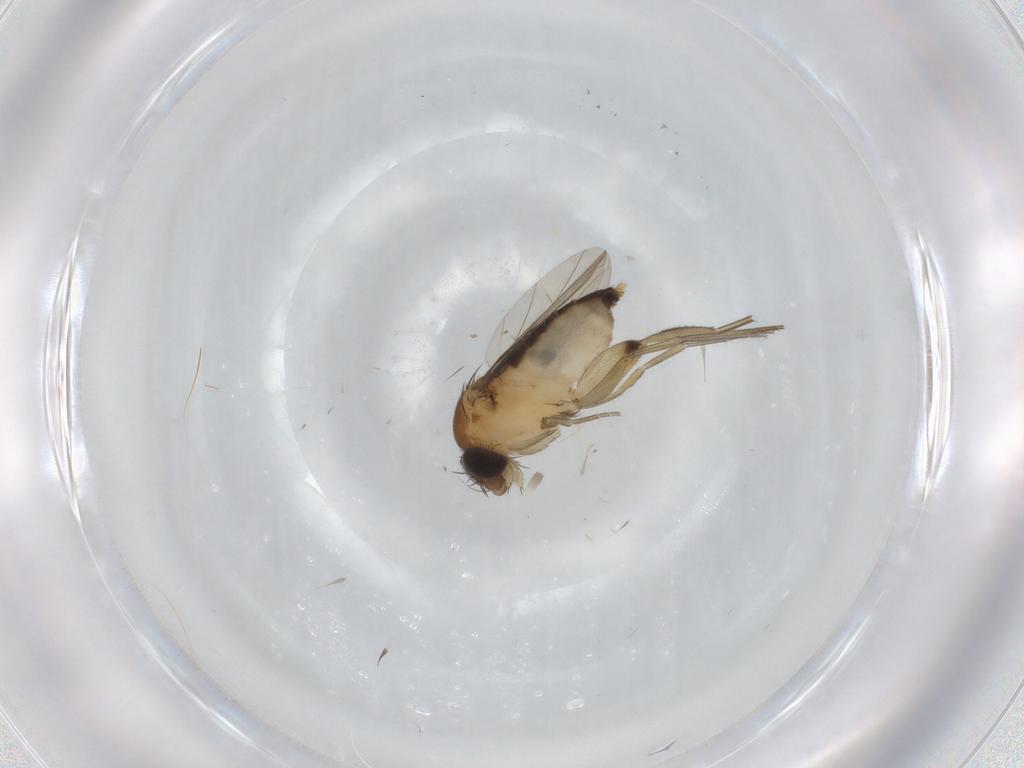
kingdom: Animalia
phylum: Arthropoda
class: Insecta
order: Diptera
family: Phoridae
